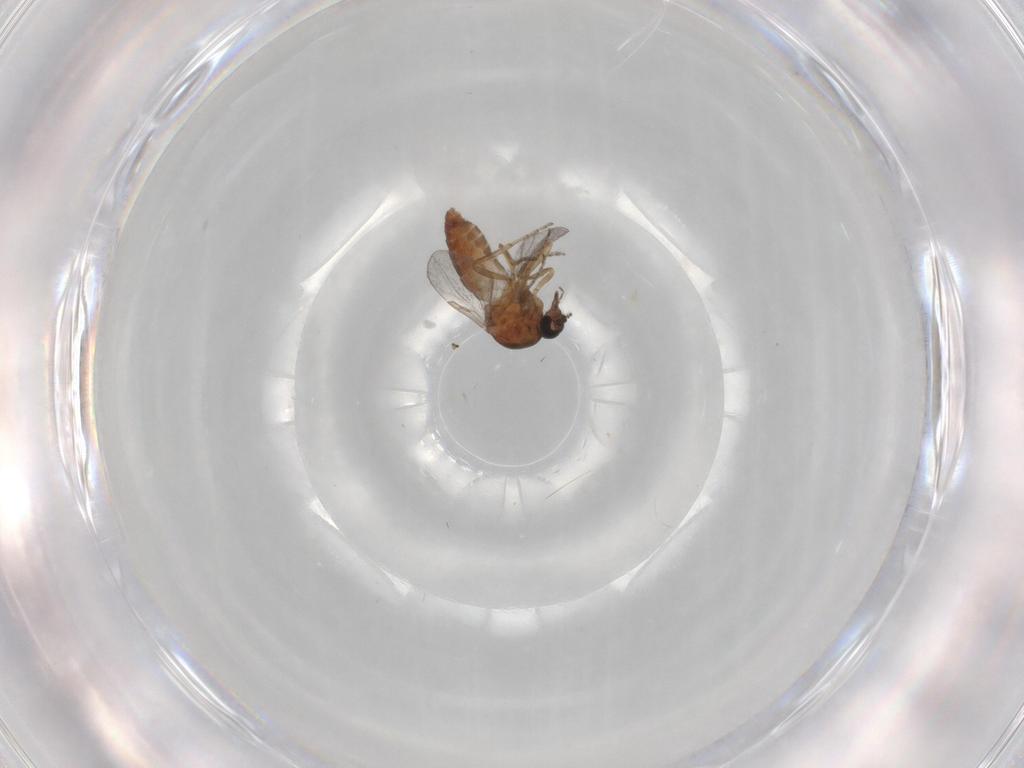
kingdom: Animalia
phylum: Arthropoda
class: Insecta
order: Diptera
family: Ceratopogonidae
